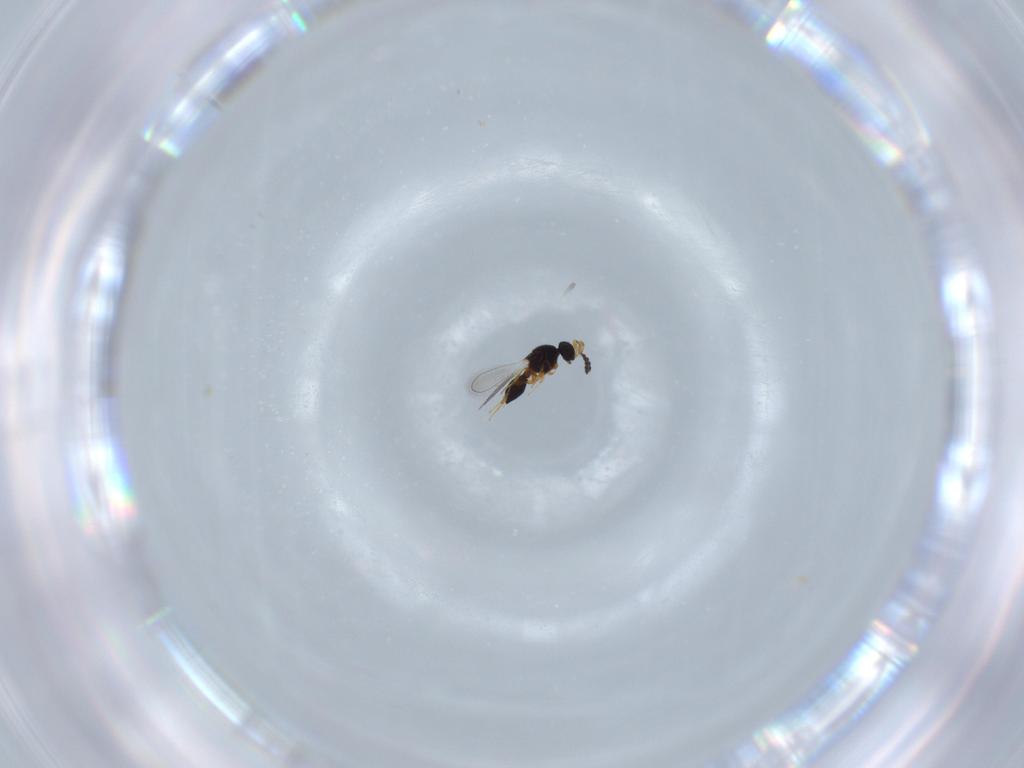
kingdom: Animalia
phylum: Arthropoda
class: Insecta
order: Hymenoptera
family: Platygastridae
